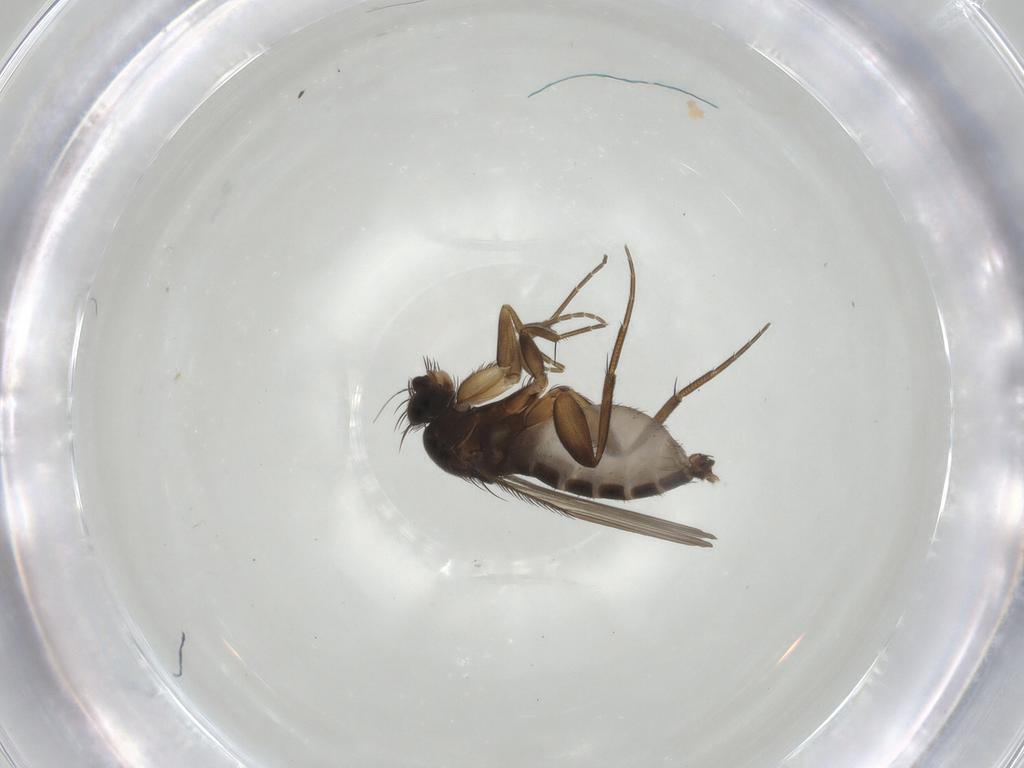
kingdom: Animalia
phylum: Arthropoda
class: Insecta
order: Diptera
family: Phoridae
